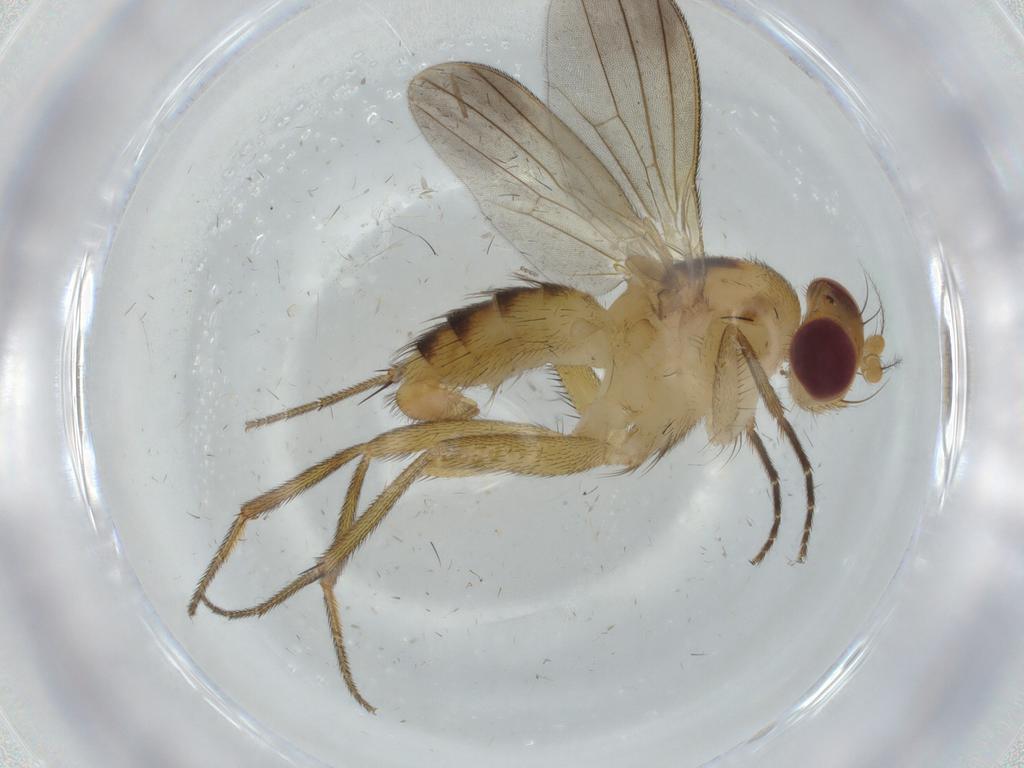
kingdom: Animalia
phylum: Arthropoda
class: Insecta
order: Diptera
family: Clusiidae
